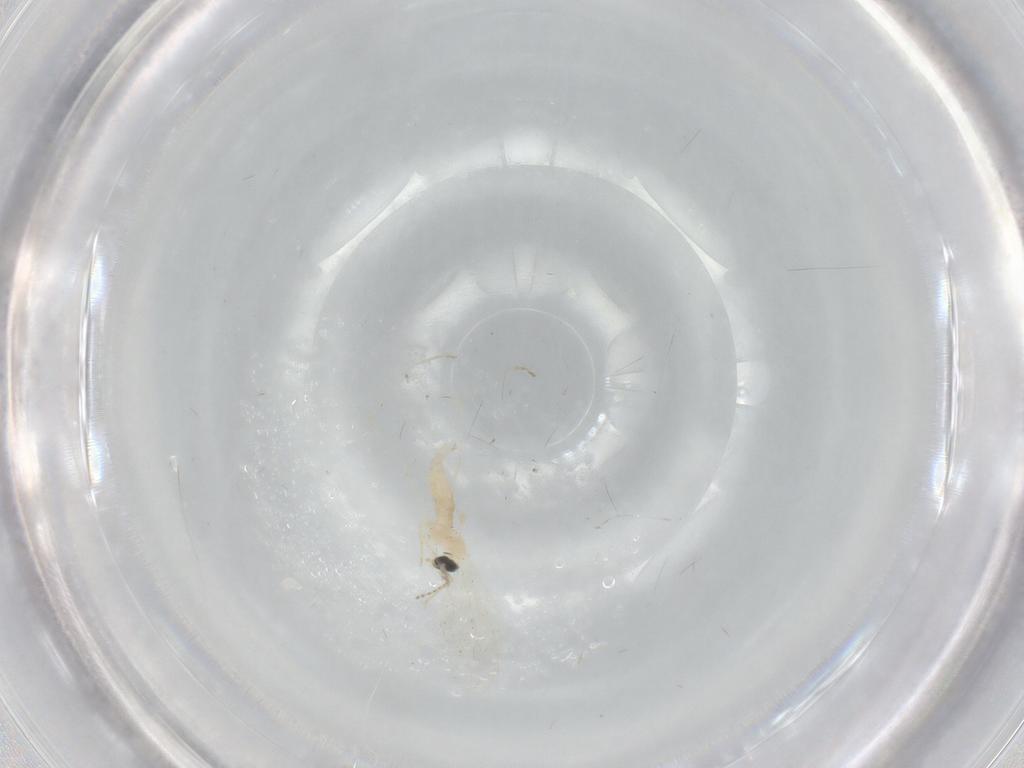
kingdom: Animalia
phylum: Arthropoda
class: Insecta
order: Diptera
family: Cecidomyiidae
